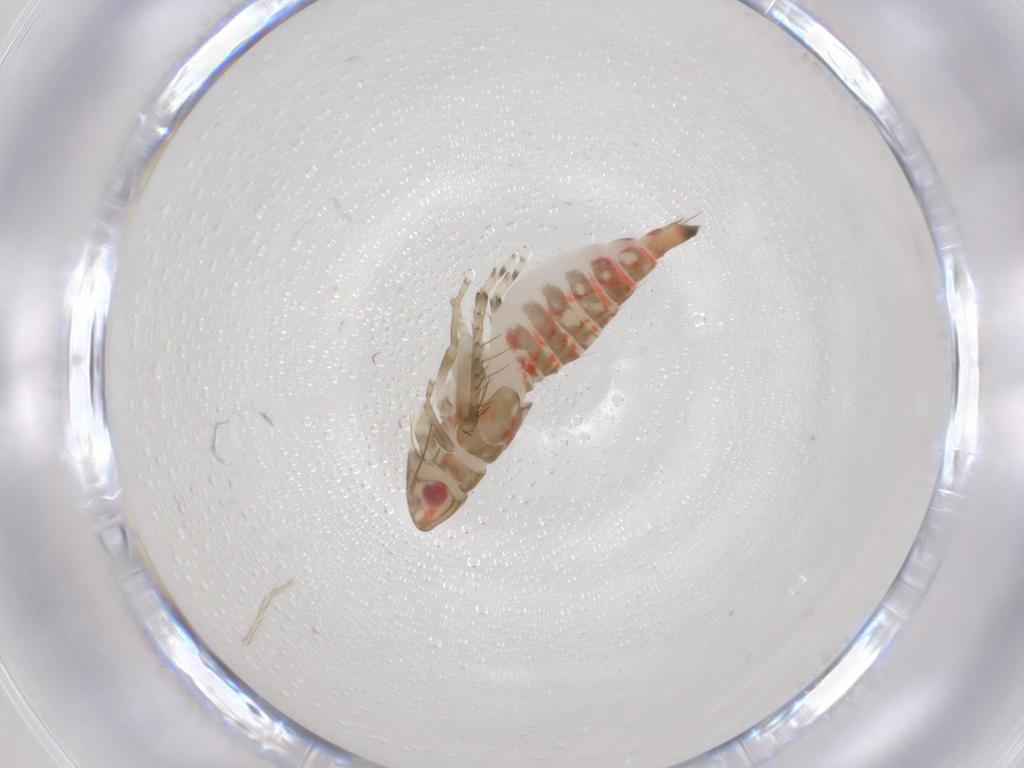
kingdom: Animalia
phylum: Arthropoda
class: Insecta
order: Hemiptera
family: Cicadellidae
